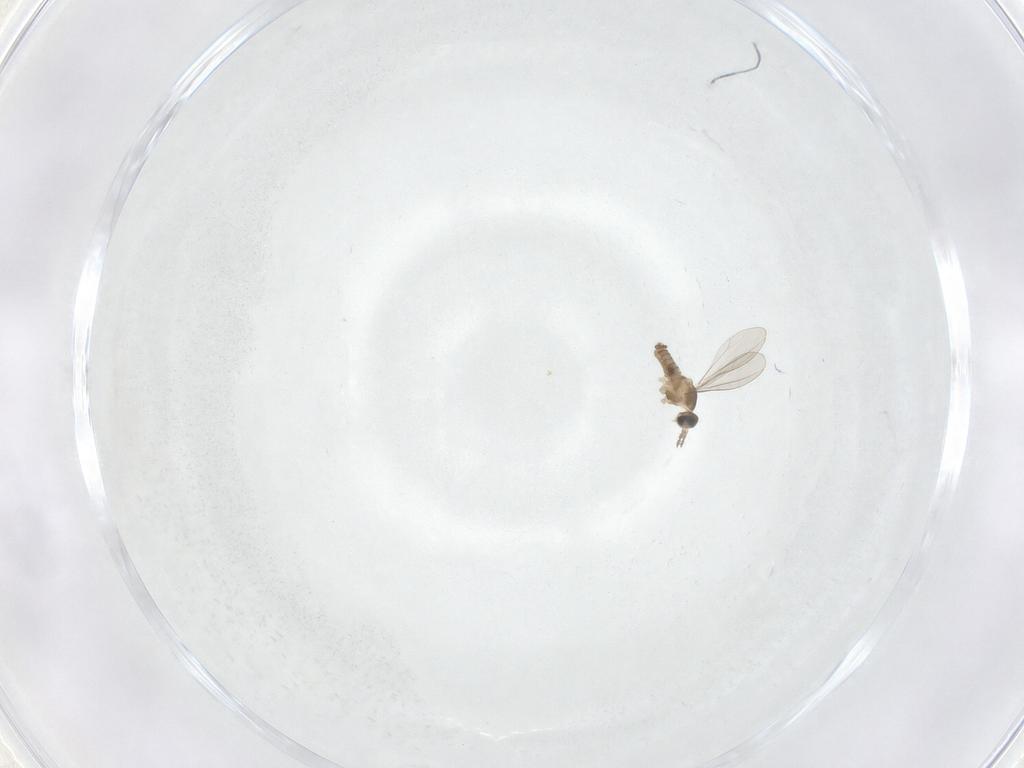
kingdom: Animalia
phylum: Arthropoda
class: Insecta
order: Diptera
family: Cecidomyiidae
